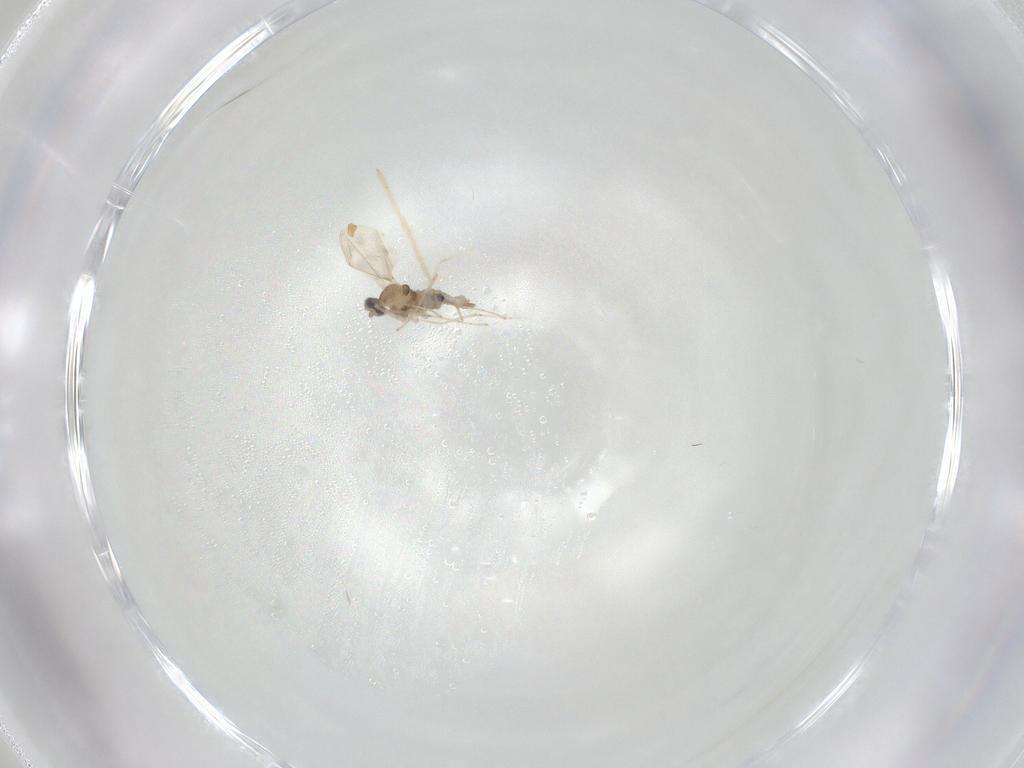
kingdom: Animalia
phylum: Arthropoda
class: Insecta
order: Diptera
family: Cecidomyiidae
